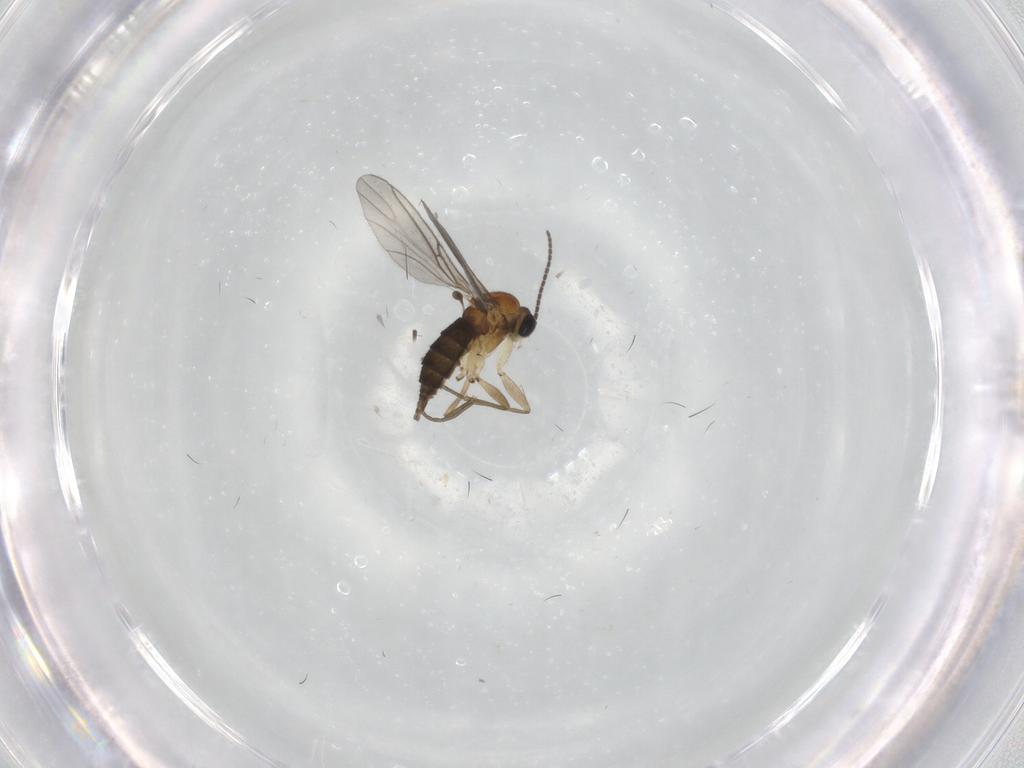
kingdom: Animalia
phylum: Arthropoda
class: Insecta
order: Diptera
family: Sciaridae
